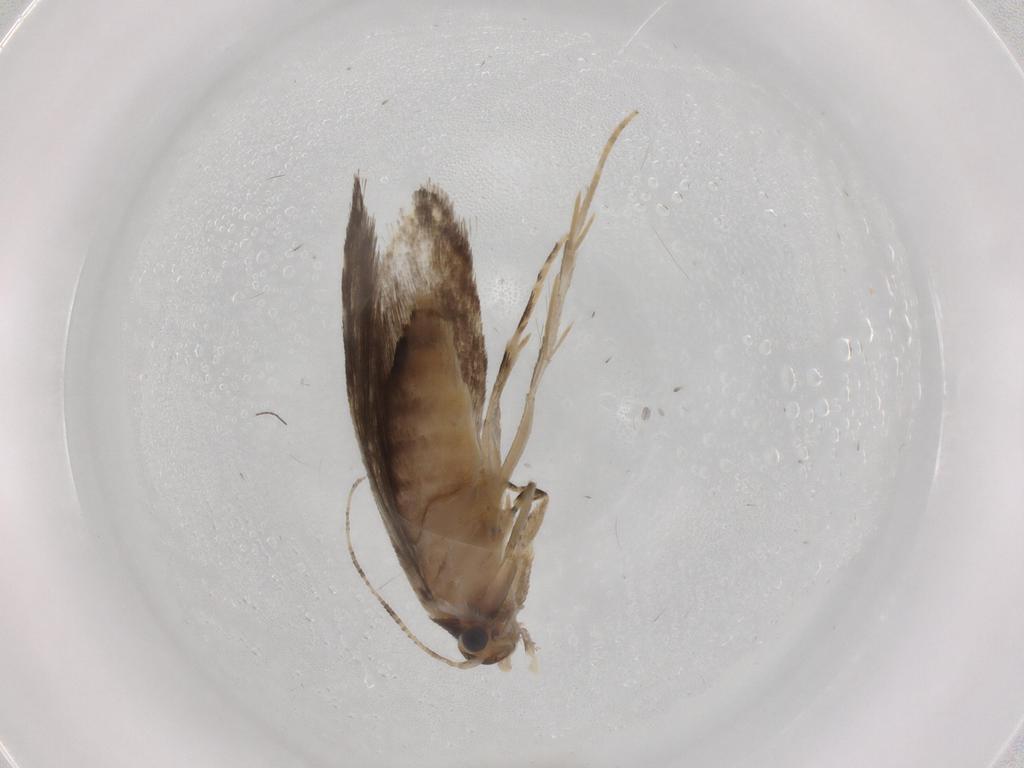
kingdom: Animalia
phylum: Arthropoda
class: Insecta
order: Lepidoptera
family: Tineidae
